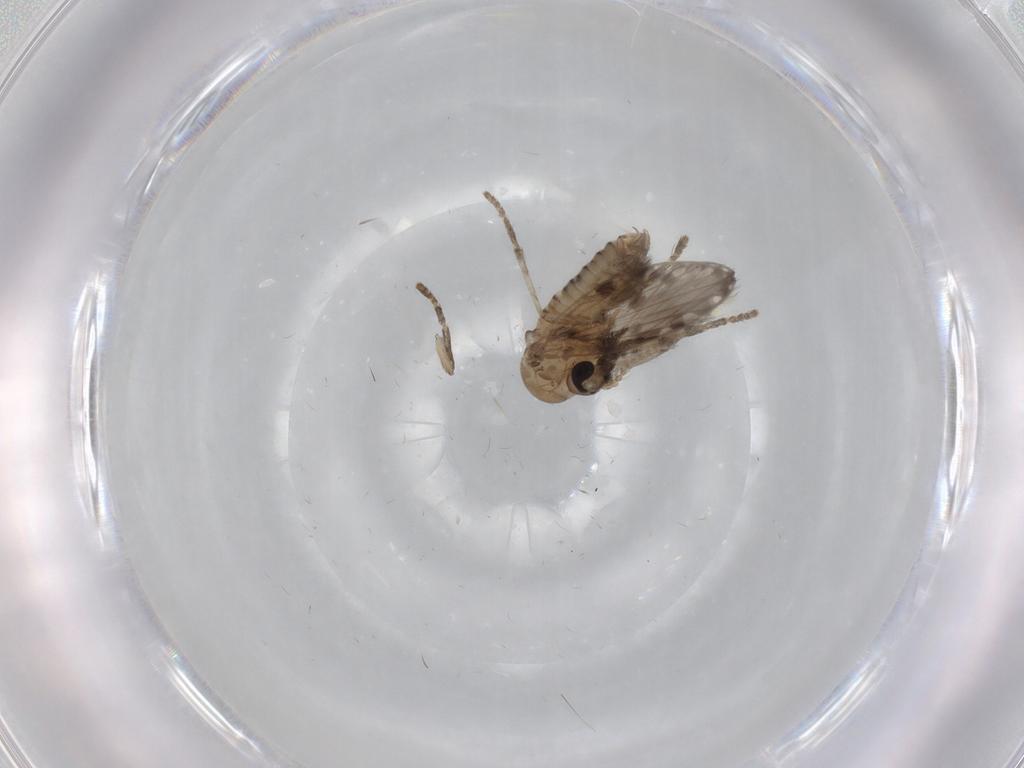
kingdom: Animalia
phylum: Arthropoda
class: Insecta
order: Diptera
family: Psychodidae
